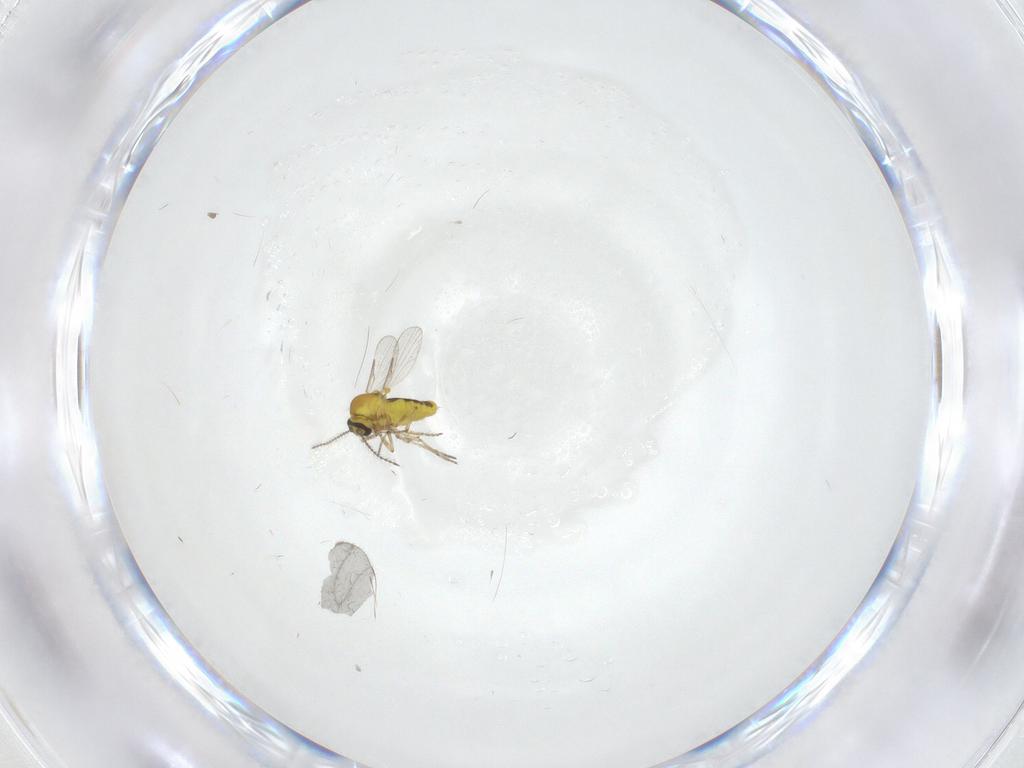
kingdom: Animalia
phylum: Arthropoda
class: Insecta
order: Diptera
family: Ceratopogonidae
